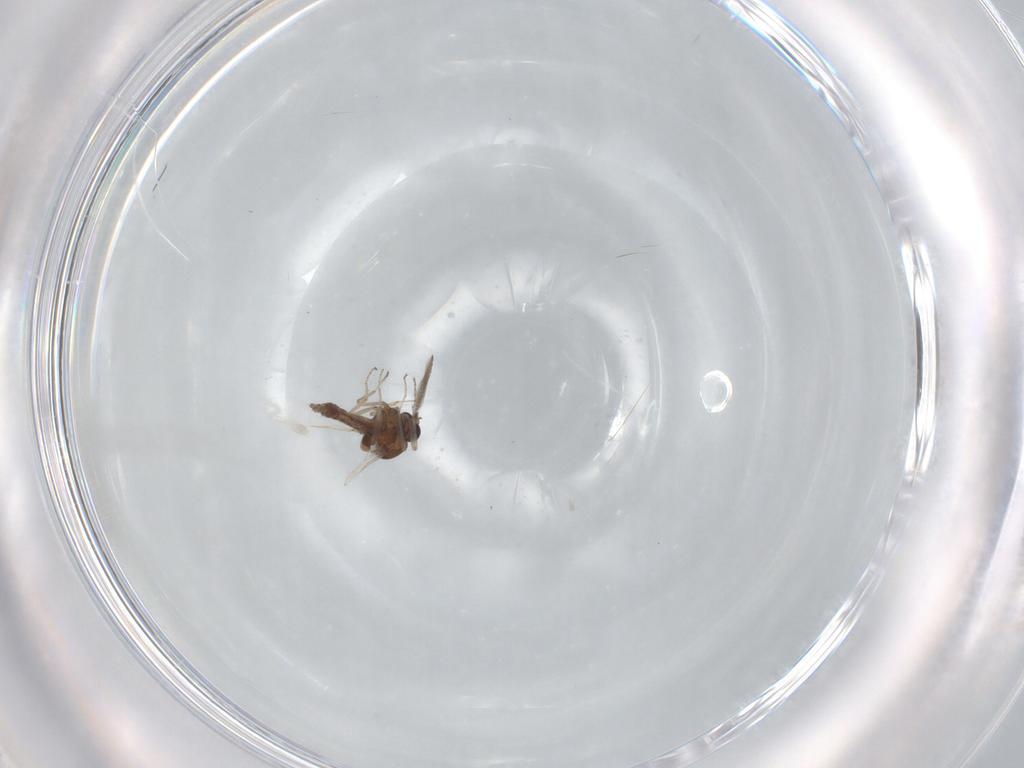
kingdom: Animalia
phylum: Arthropoda
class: Insecta
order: Diptera
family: Ceratopogonidae
